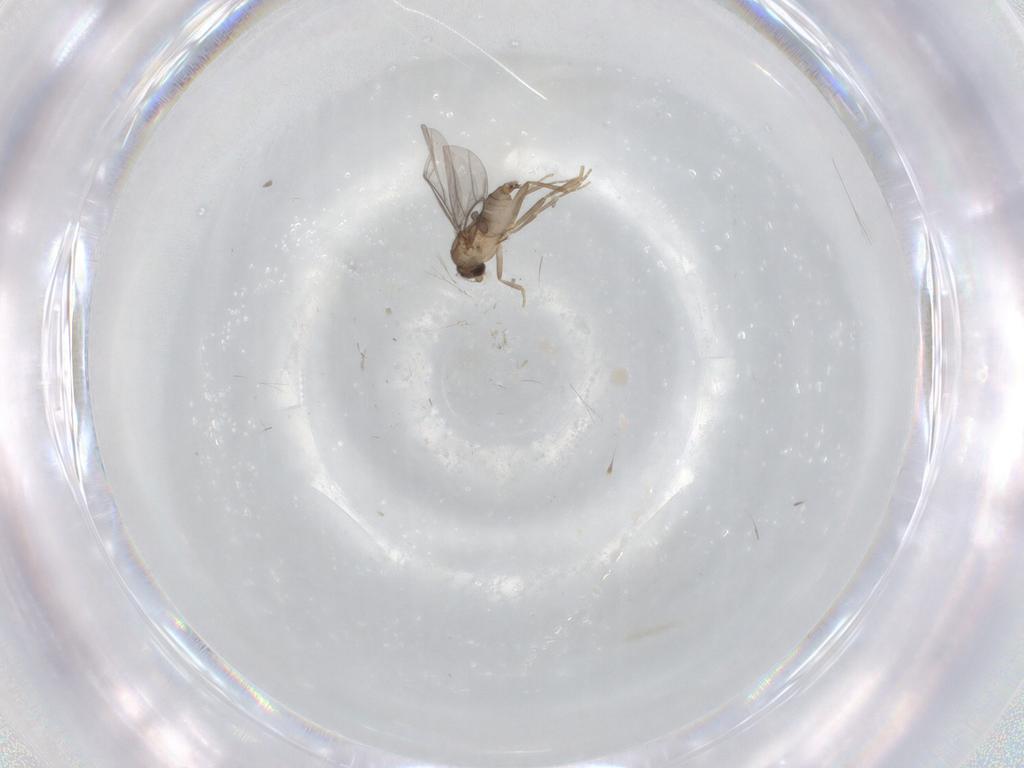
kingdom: Animalia
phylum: Arthropoda
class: Insecta
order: Diptera
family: Cecidomyiidae
